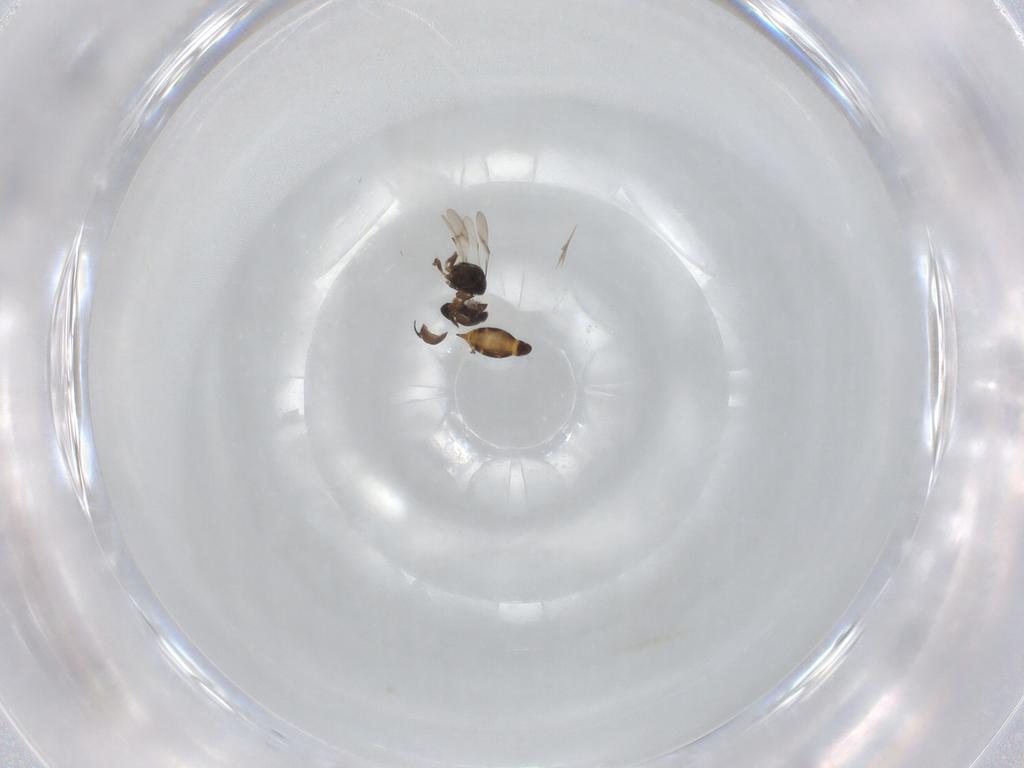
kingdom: Animalia
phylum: Arthropoda
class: Insecta
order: Hymenoptera
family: Scelionidae
